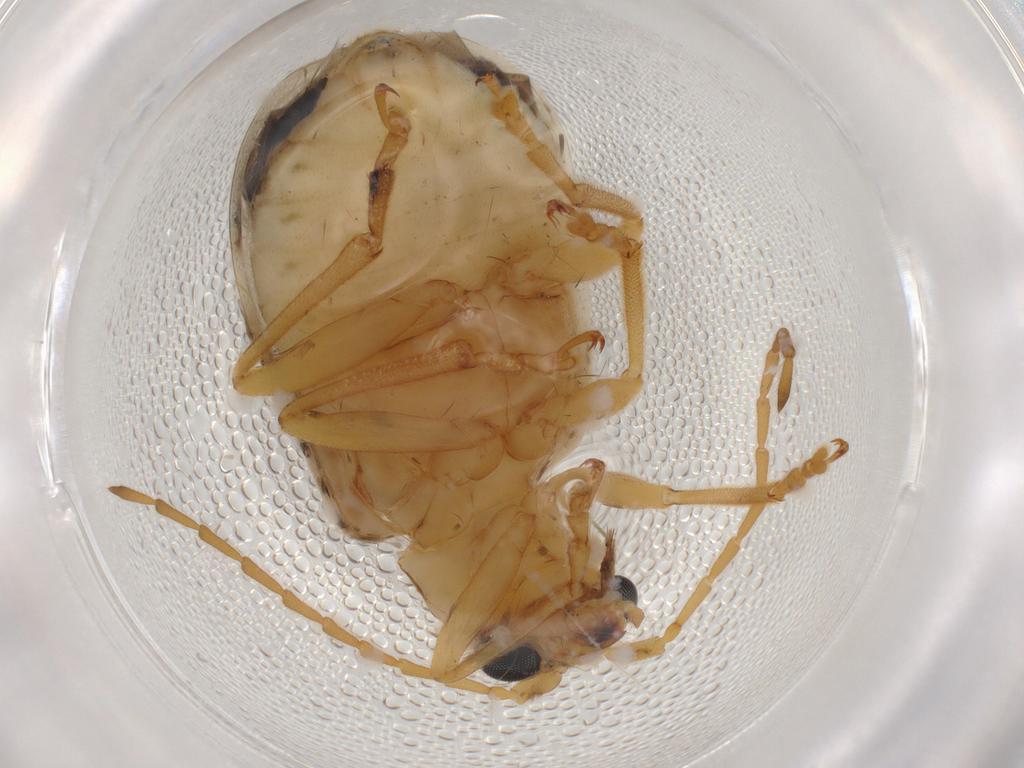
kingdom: Animalia
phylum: Arthropoda
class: Insecta
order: Coleoptera
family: Chrysomelidae
